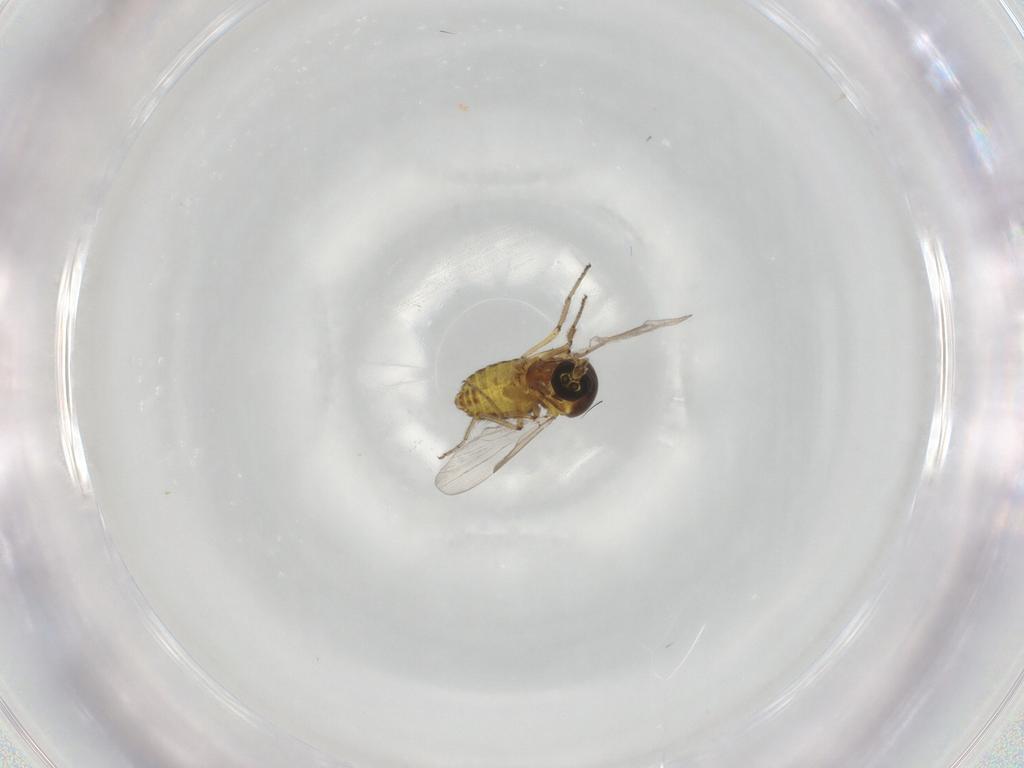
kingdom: Animalia
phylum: Arthropoda
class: Insecta
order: Diptera
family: Ceratopogonidae
